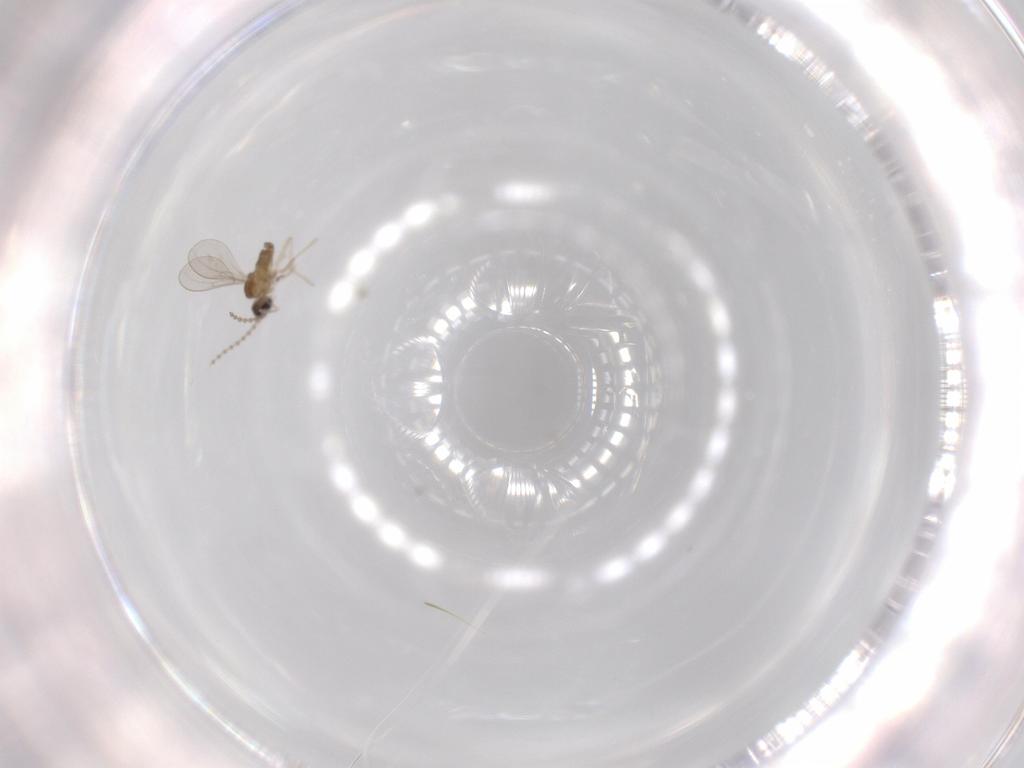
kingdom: Animalia
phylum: Arthropoda
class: Insecta
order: Diptera
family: Cecidomyiidae
